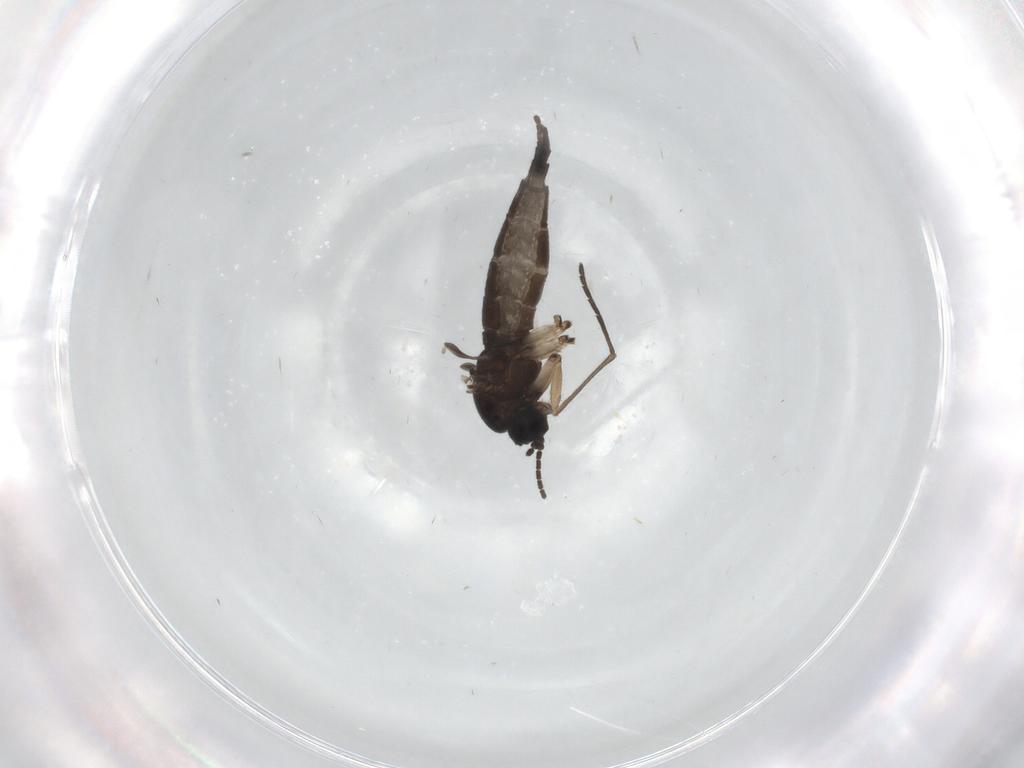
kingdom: Animalia
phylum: Arthropoda
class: Insecta
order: Diptera
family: Sciaridae
